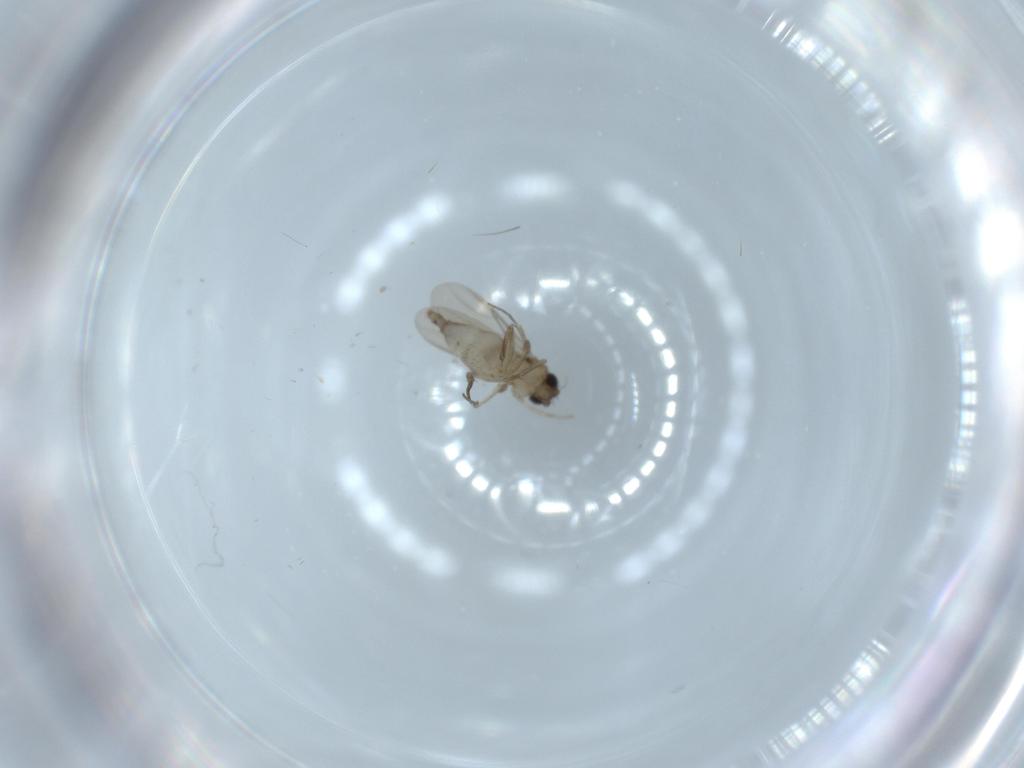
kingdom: Animalia
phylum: Arthropoda
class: Insecta
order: Diptera
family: Phoridae
